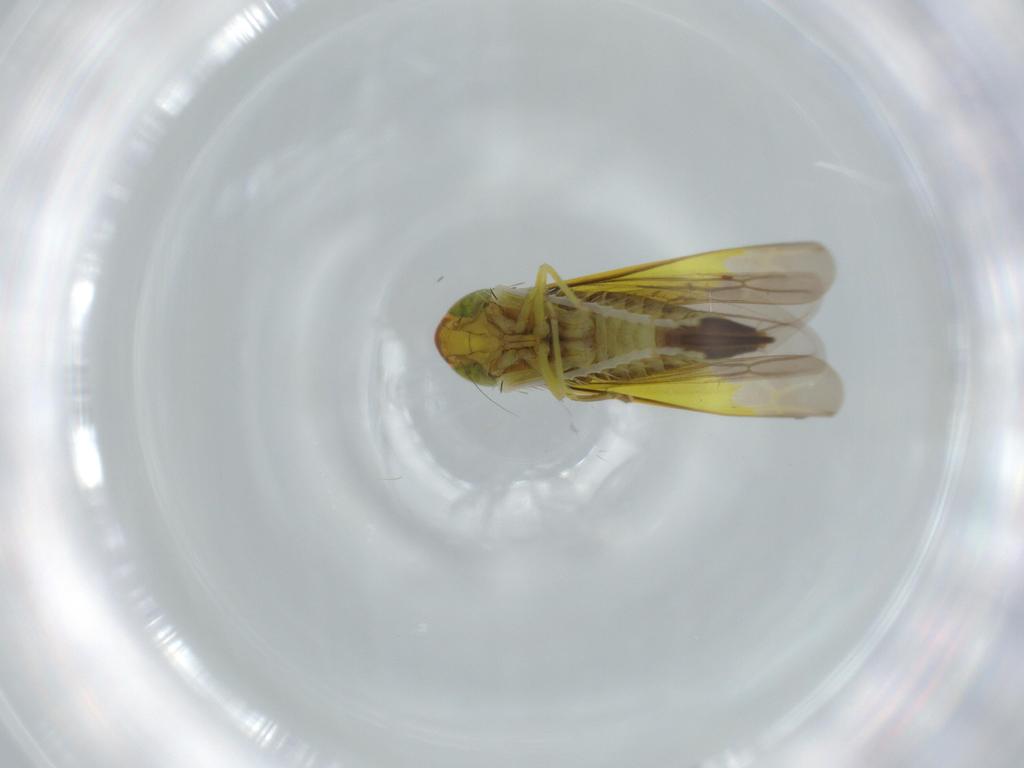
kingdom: Animalia
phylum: Arthropoda
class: Insecta
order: Hemiptera
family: Cicadellidae
